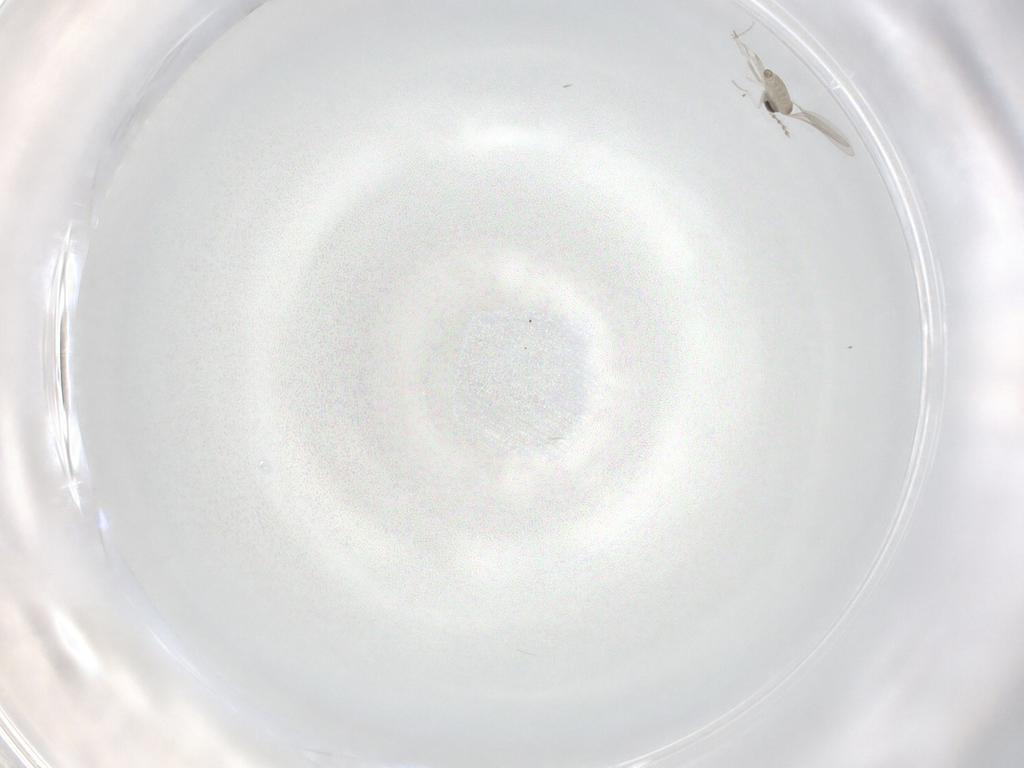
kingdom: Animalia
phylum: Arthropoda
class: Insecta
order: Diptera
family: Cecidomyiidae
